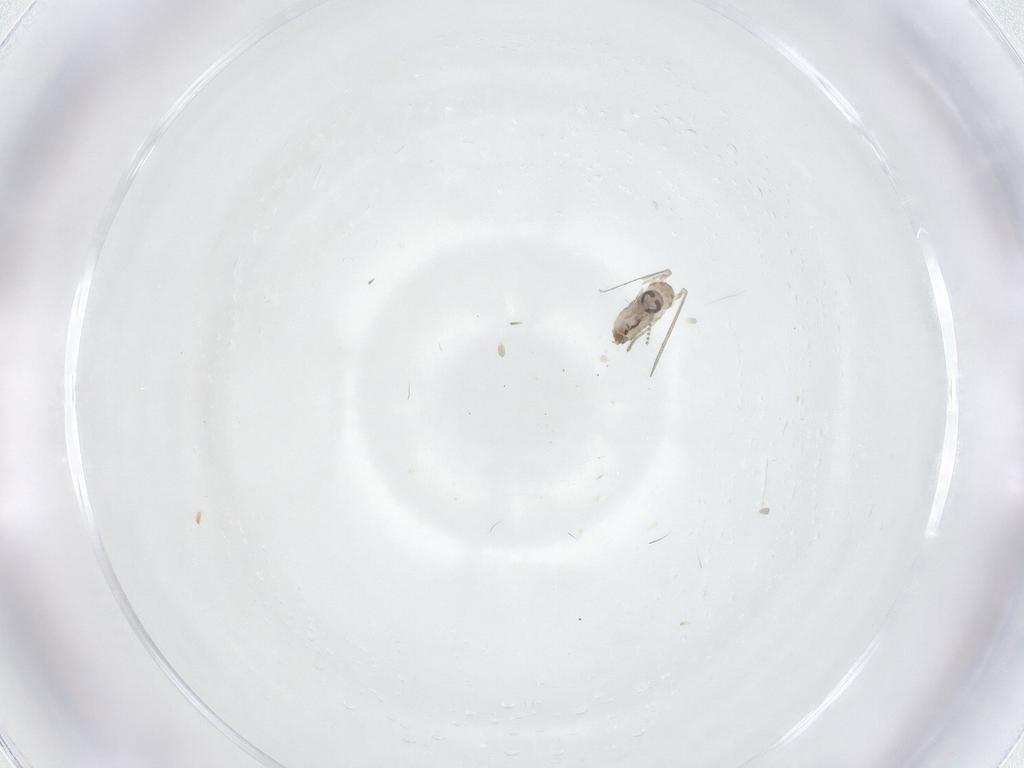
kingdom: Animalia
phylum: Arthropoda
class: Insecta
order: Diptera
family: Psychodidae
